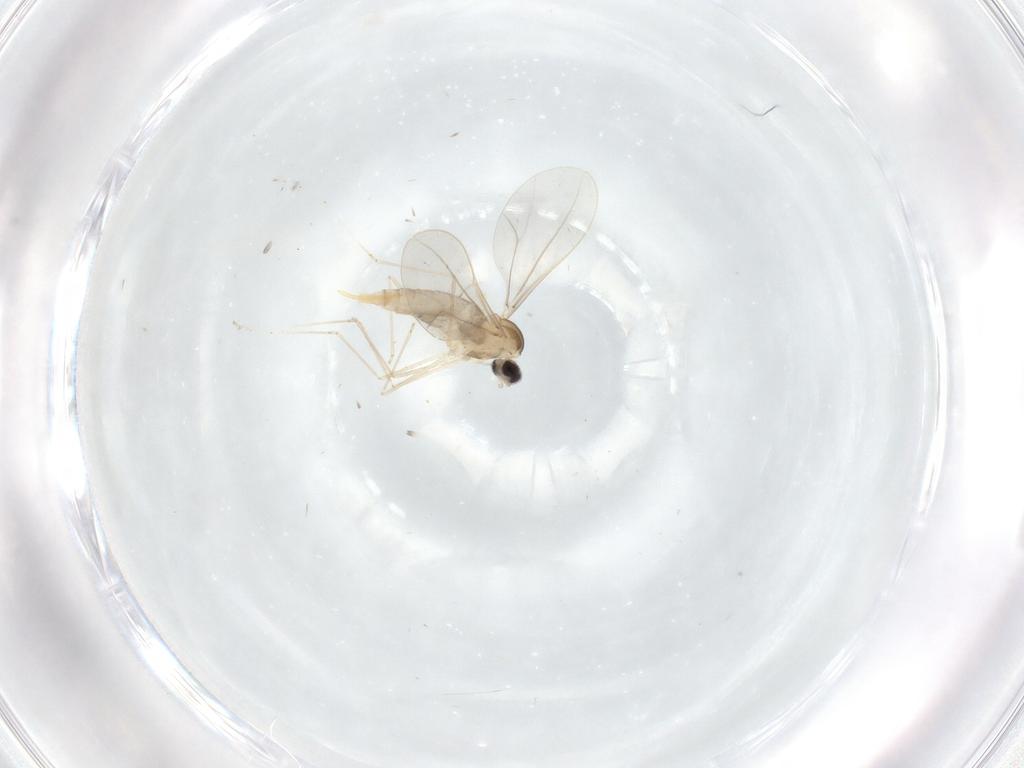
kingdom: Animalia
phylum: Arthropoda
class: Insecta
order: Diptera
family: Cecidomyiidae
